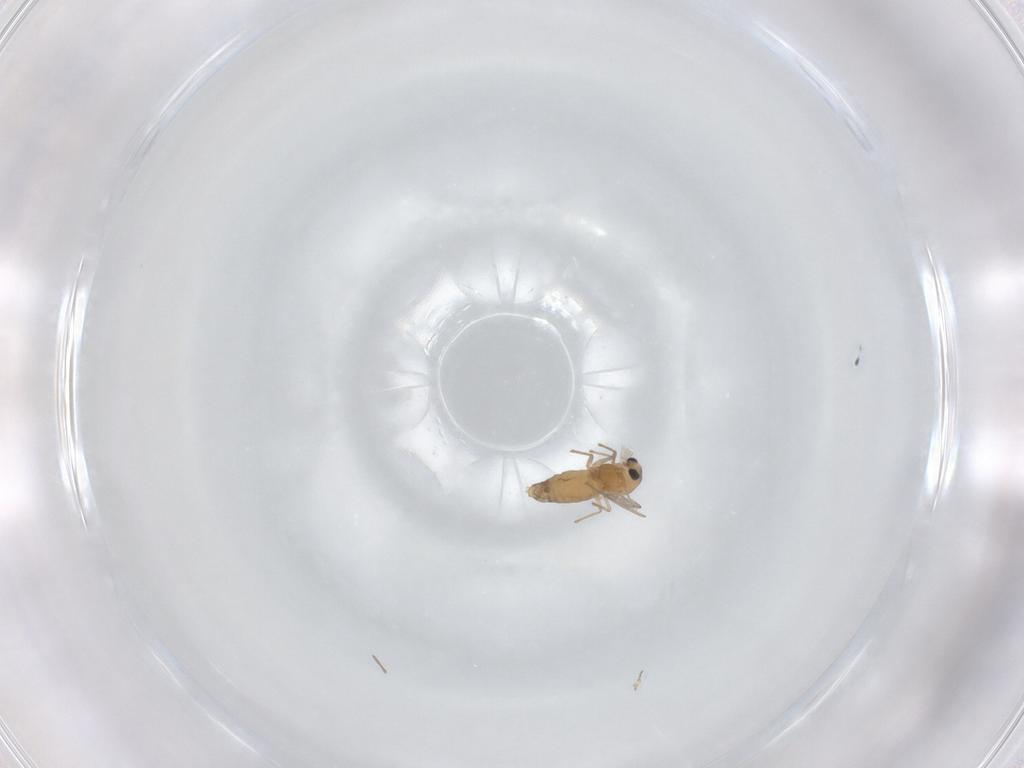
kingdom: Animalia
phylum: Arthropoda
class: Insecta
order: Diptera
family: Chironomidae
